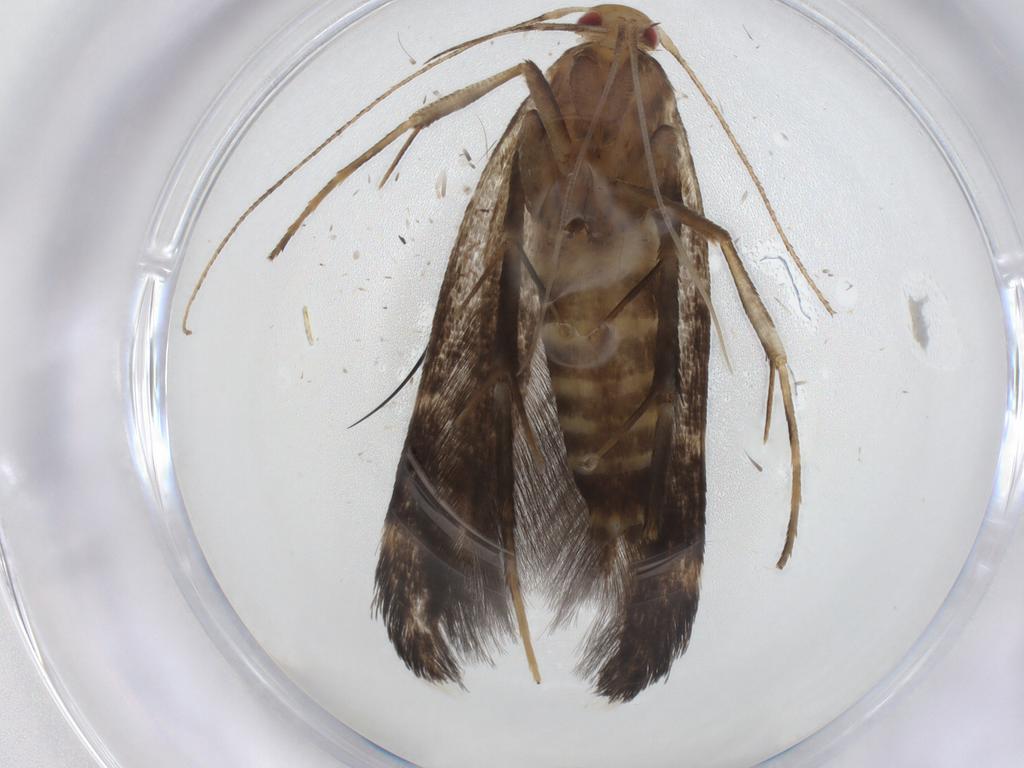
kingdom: Animalia
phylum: Arthropoda
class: Insecta
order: Lepidoptera
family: Cosmopterigidae
